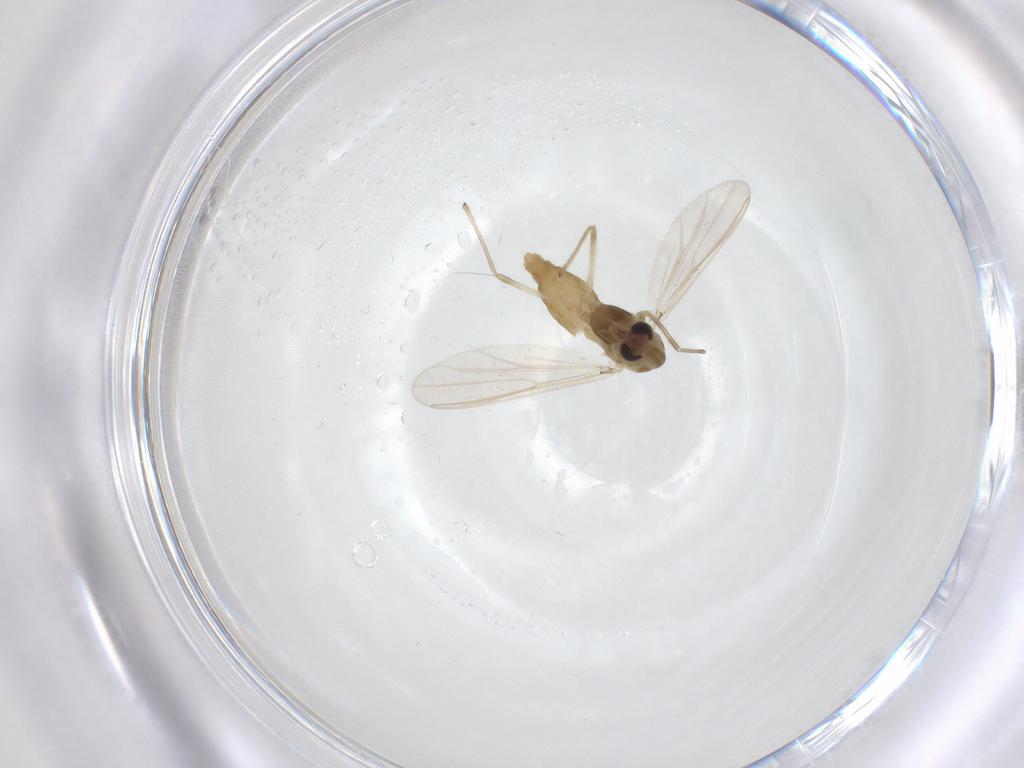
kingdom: Animalia
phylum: Arthropoda
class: Insecta
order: Diptera
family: Chironomidae
